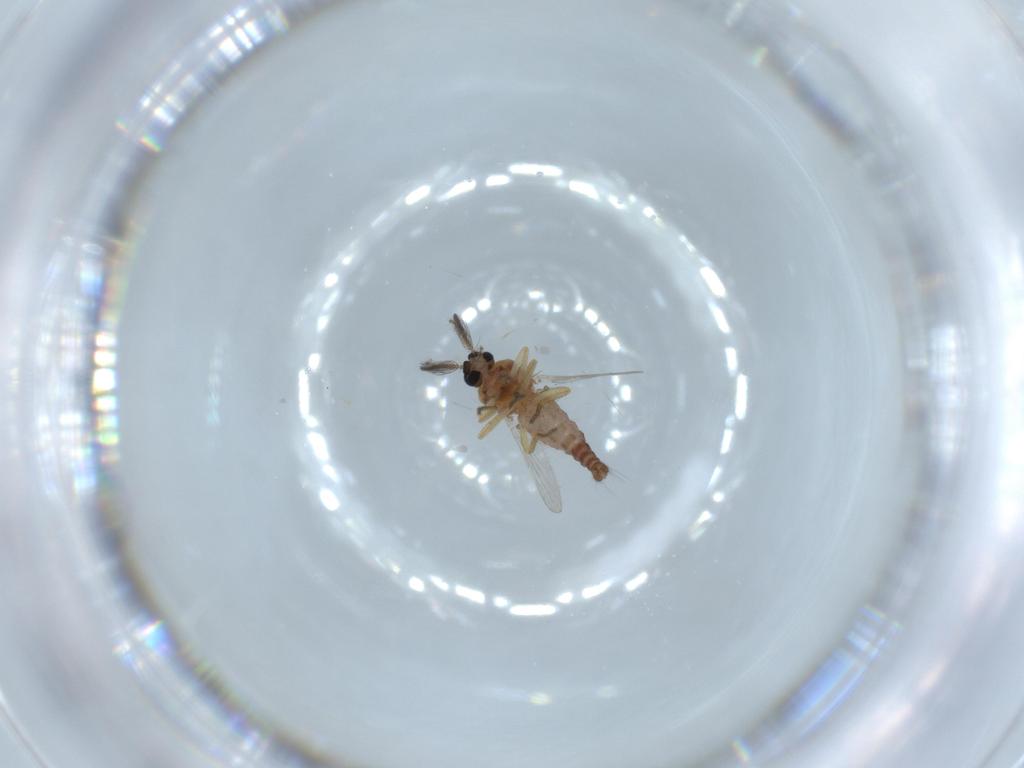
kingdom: Animalia
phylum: Arthropoda
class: Insecta
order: Diptera
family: Ceratopogonidae
